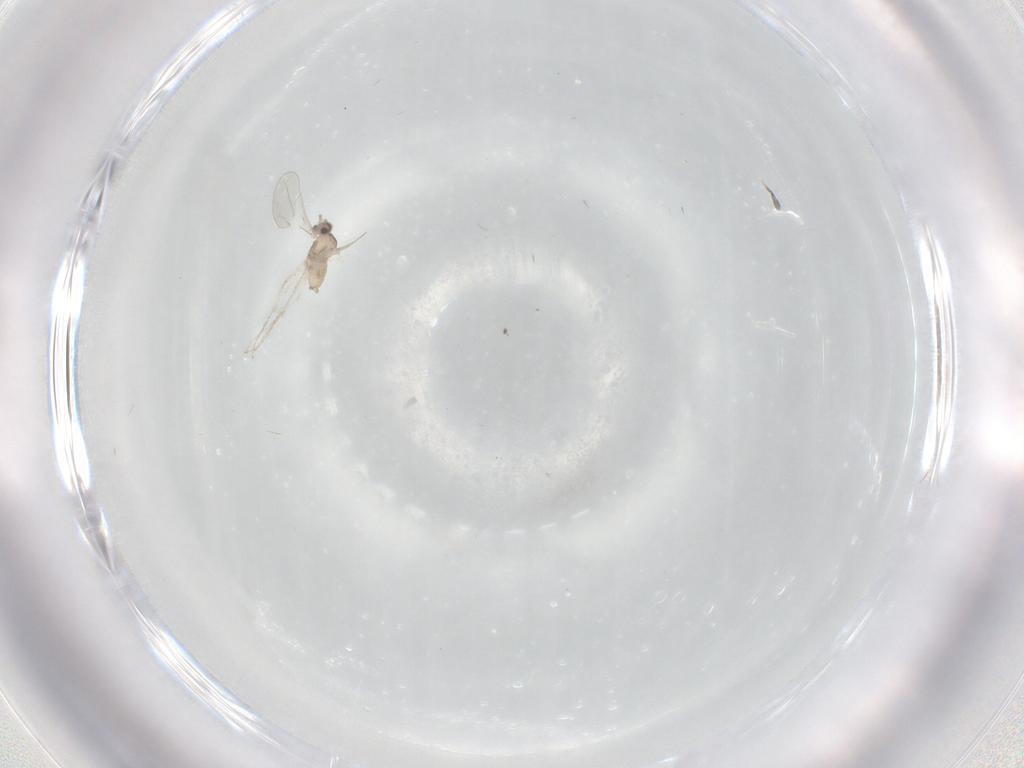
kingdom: Animalia
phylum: Arthropoda
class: Insecta
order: Diptera
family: Cecidomyiidae
